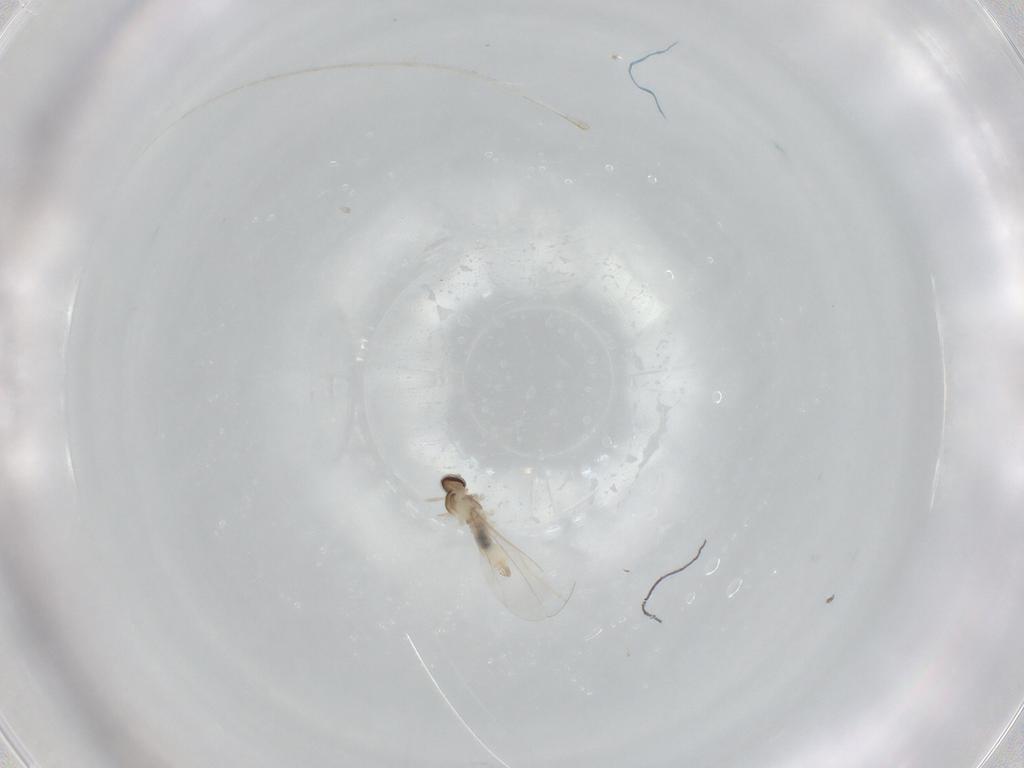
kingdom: Animalia
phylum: Arthropoda
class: Insecta
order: Diptera
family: Cecidomyiidae
